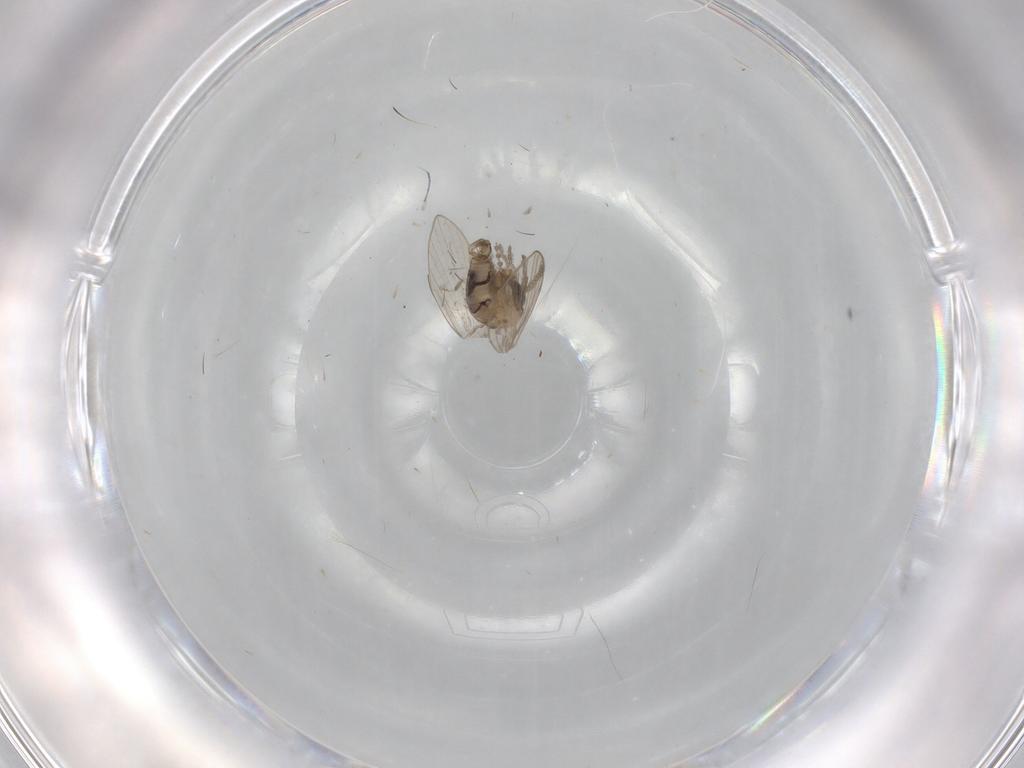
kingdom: Animalia
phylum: Arthropoda
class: Insecta
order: Diptera
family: Psychodidae
